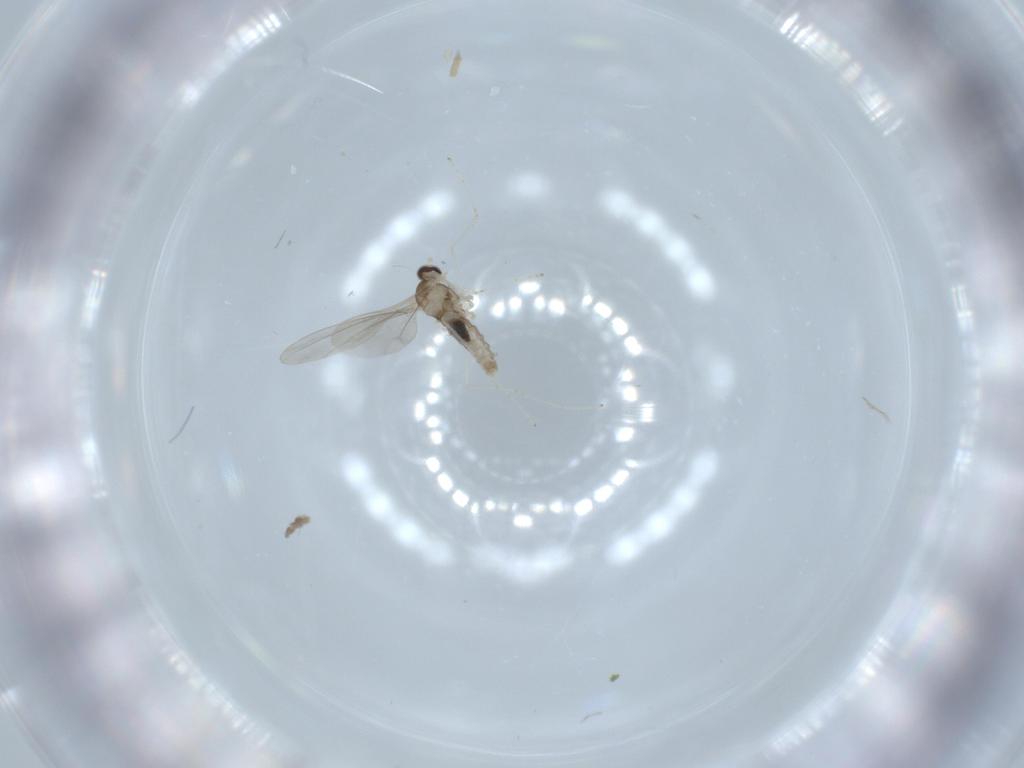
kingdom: Animalia
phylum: Arthropoda
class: Insecta
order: Diptera
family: Cecidomyiidae
